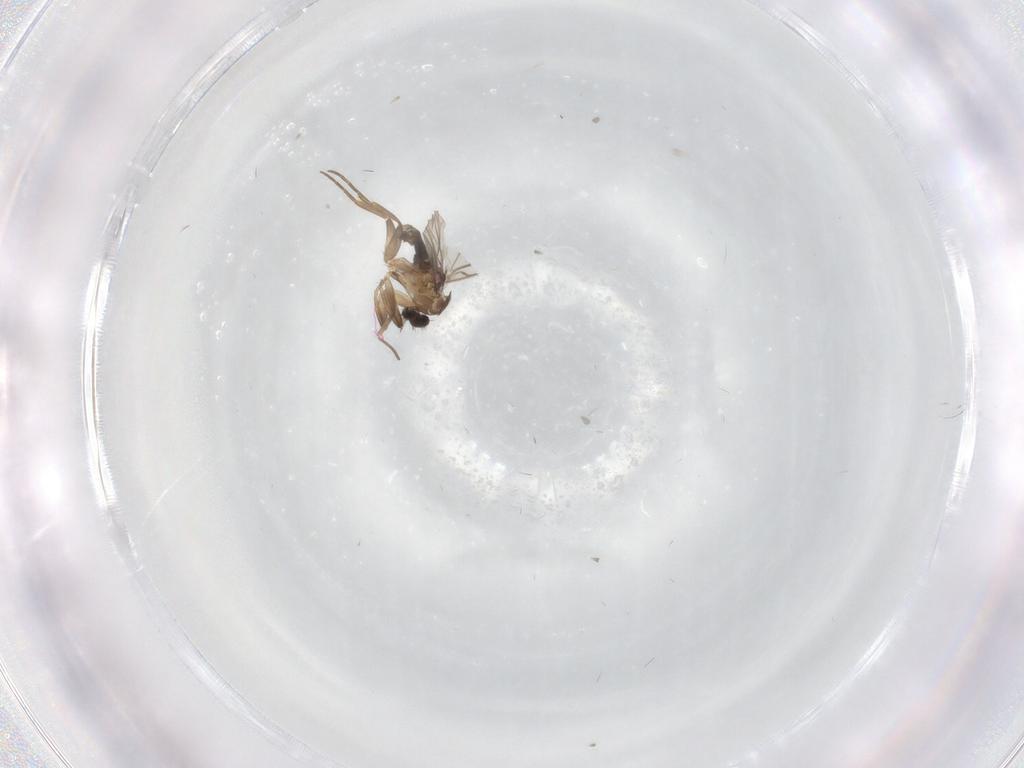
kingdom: Animalia
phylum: Arthropoda
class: Insecta
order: Diptera
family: Sciaridae
